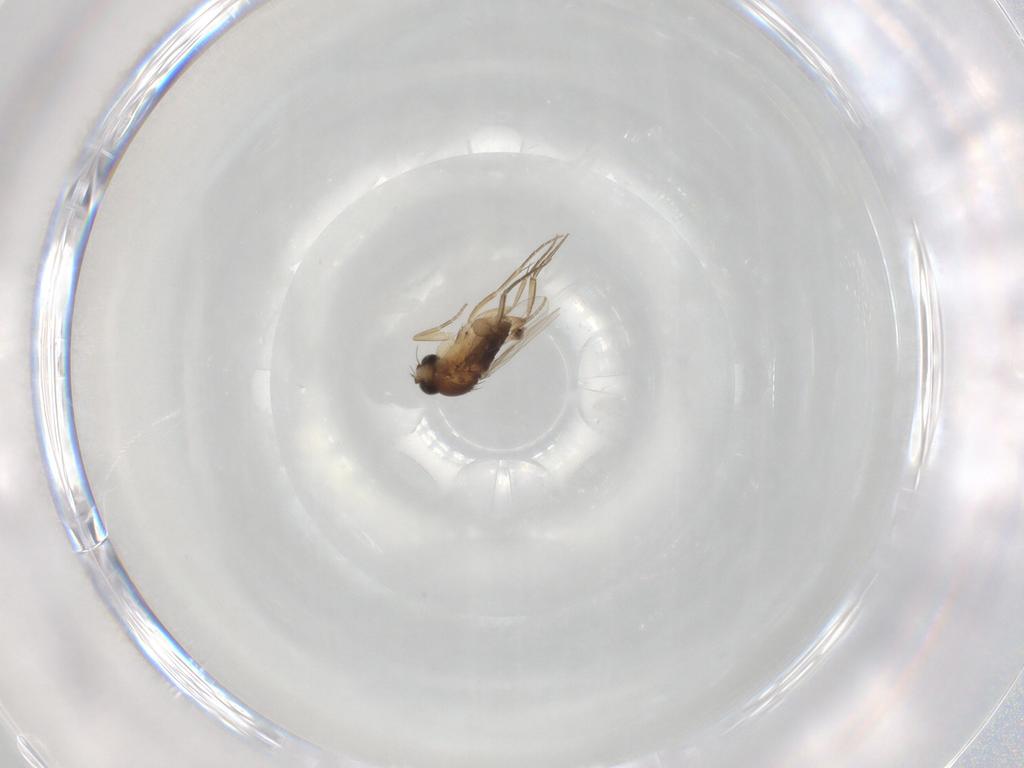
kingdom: Animalia
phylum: Arthropoda
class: Insecta
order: Diptera
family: Phoridae
